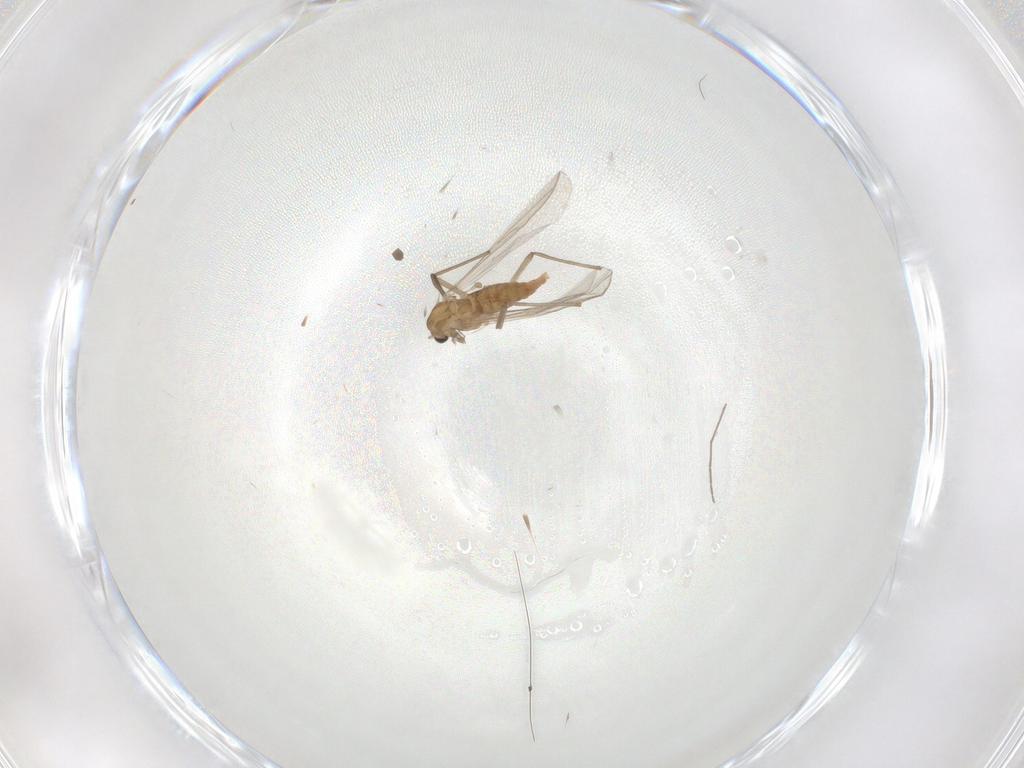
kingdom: Animalia
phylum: Arthropoda
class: Insecta
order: Diptera
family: Chironomidae
